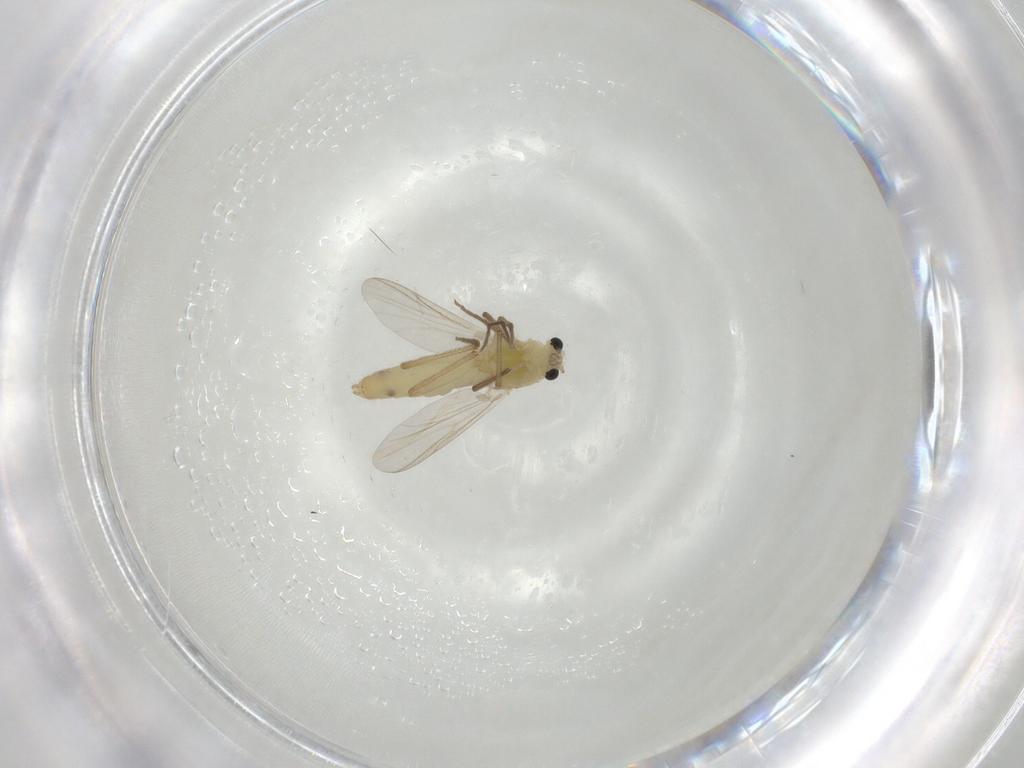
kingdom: Animalia
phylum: Arthropoda
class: Insecta
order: Diptera
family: Chironomidae
